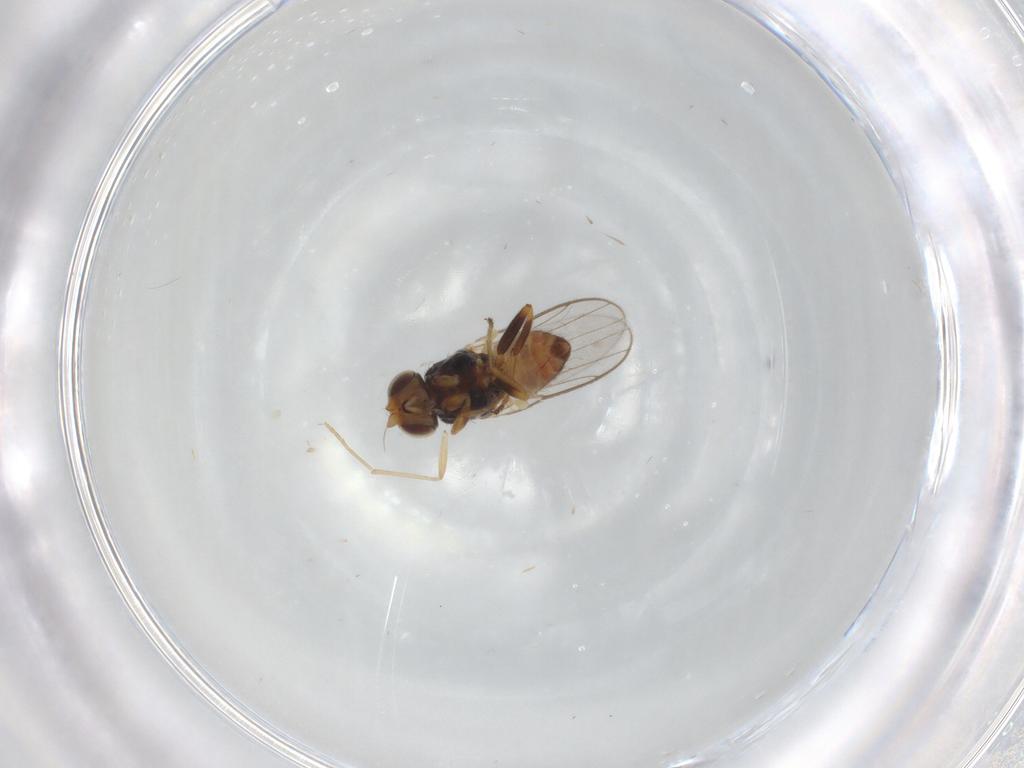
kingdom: Animalia
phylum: Arthropoda
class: Insecta
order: Diptera
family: Chloropidae
